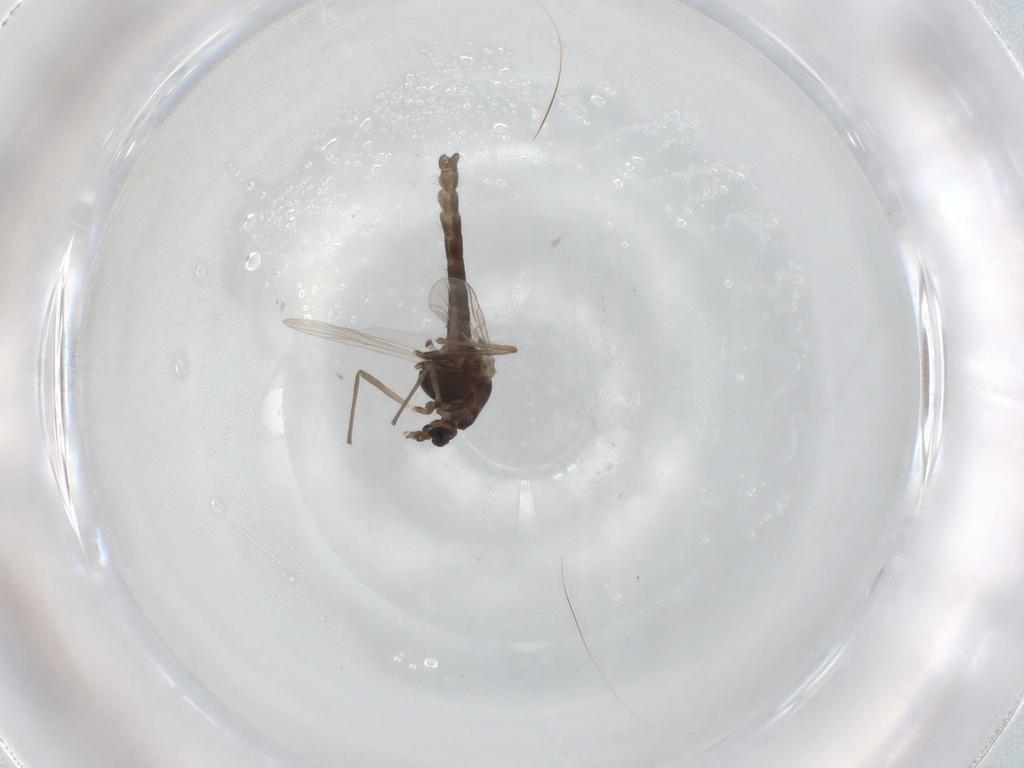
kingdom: Animalia
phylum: Arthropoda
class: Insecta
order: Diptera
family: Chironomidae
